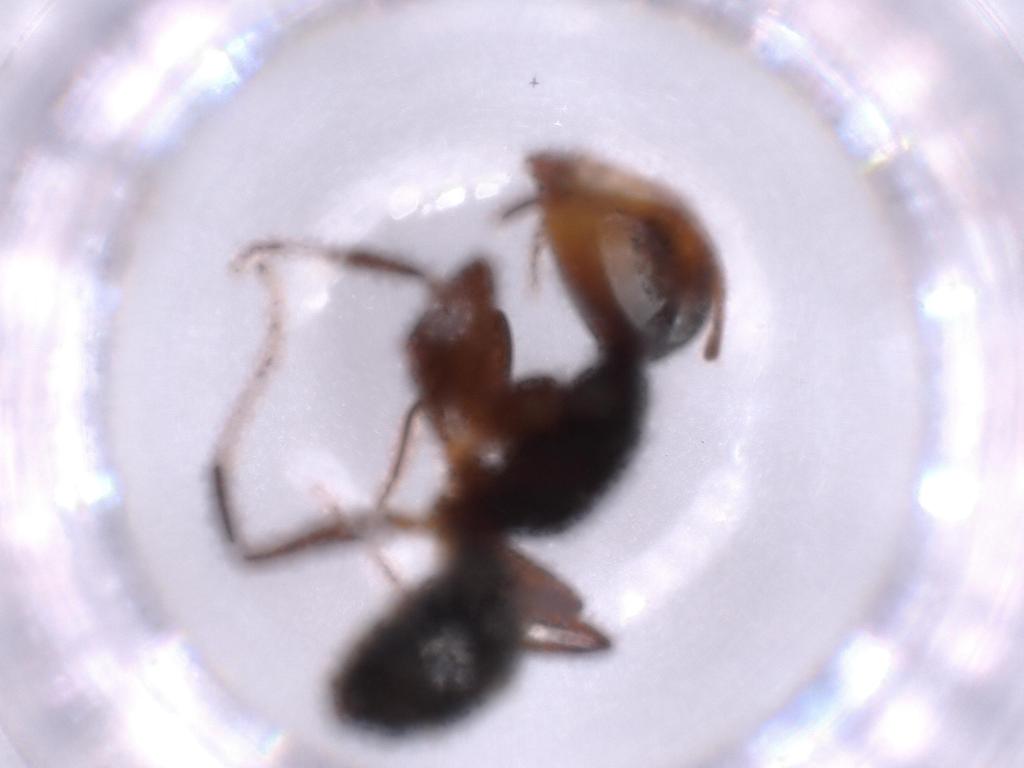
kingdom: Animalia
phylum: Arthropoda
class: Insecta
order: Hymenoptera
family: Formicidae
